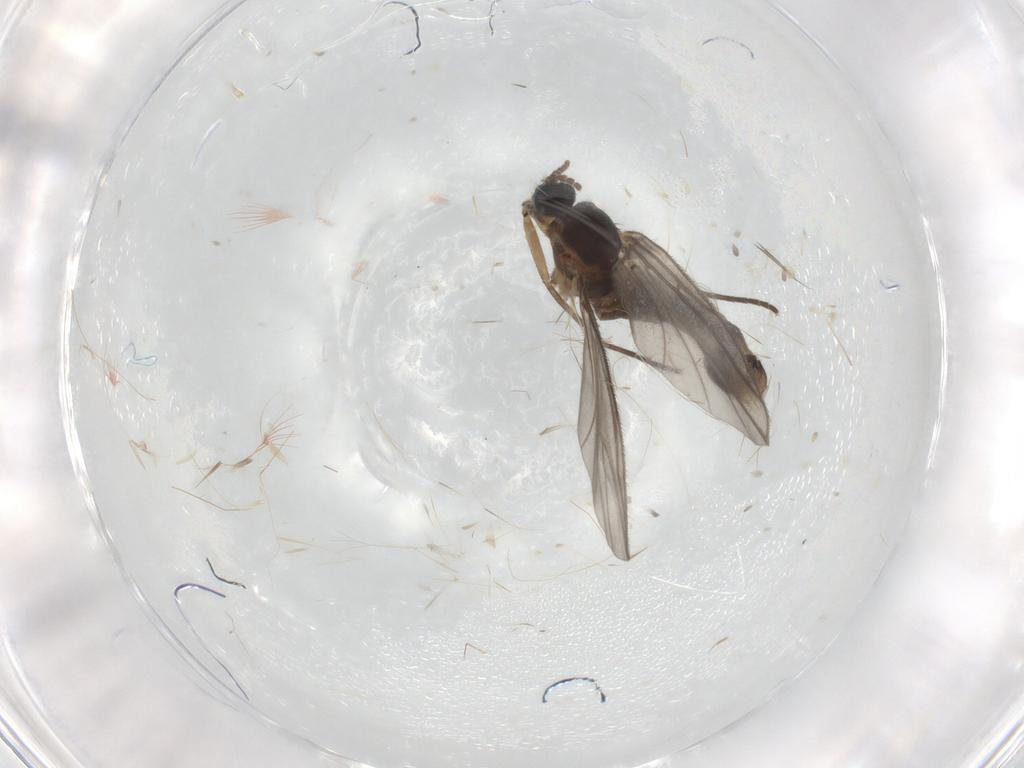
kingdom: Animalia
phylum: Arthropoda
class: Insecta
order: Diptera
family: Sciaridae
